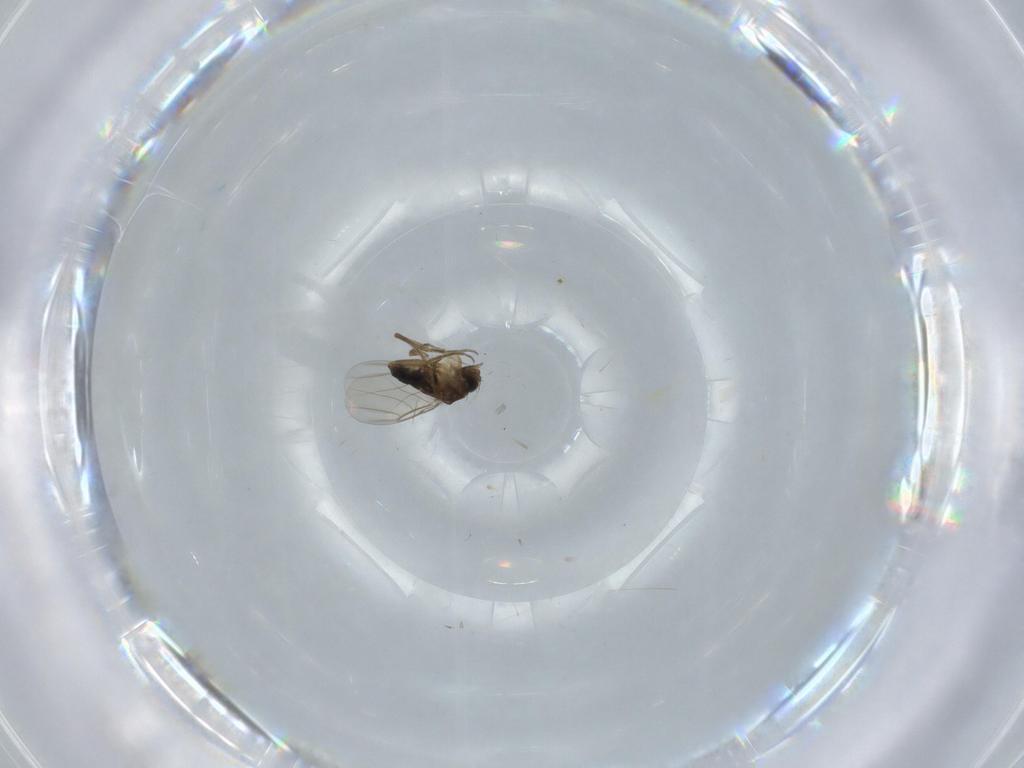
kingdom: Animalia
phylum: Arthropoda
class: Insecta
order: Diptera
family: Phoridae
